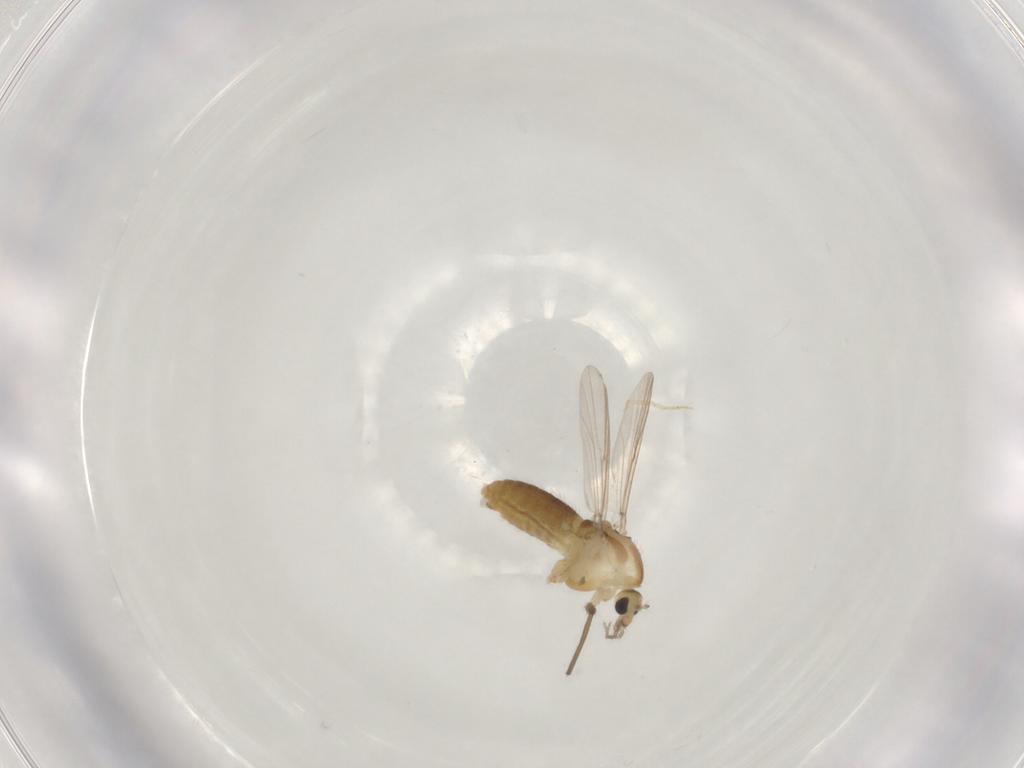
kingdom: Animalia
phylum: Arthropoda
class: Insecta
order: Diptera
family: Chironomidae
